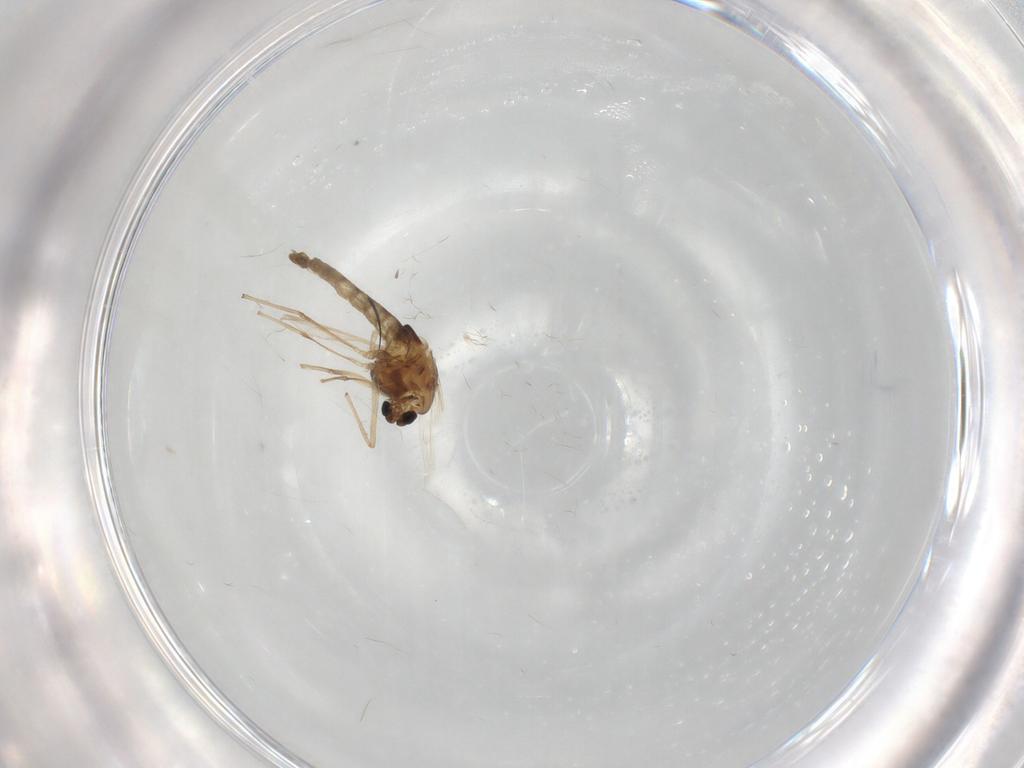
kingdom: Animalia
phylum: Arthropoda
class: Insecta
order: Diptera
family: Chironomidae
